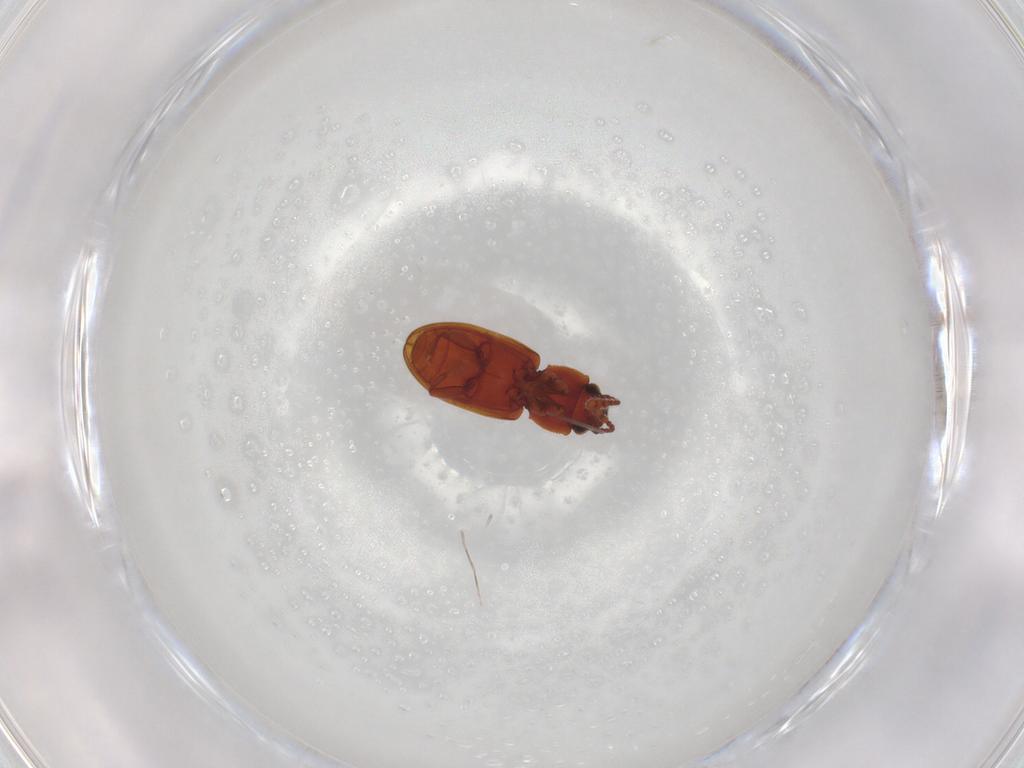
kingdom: Animalia
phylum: Arthropoda
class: Insecta
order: Coleoptera
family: Silvanidae
